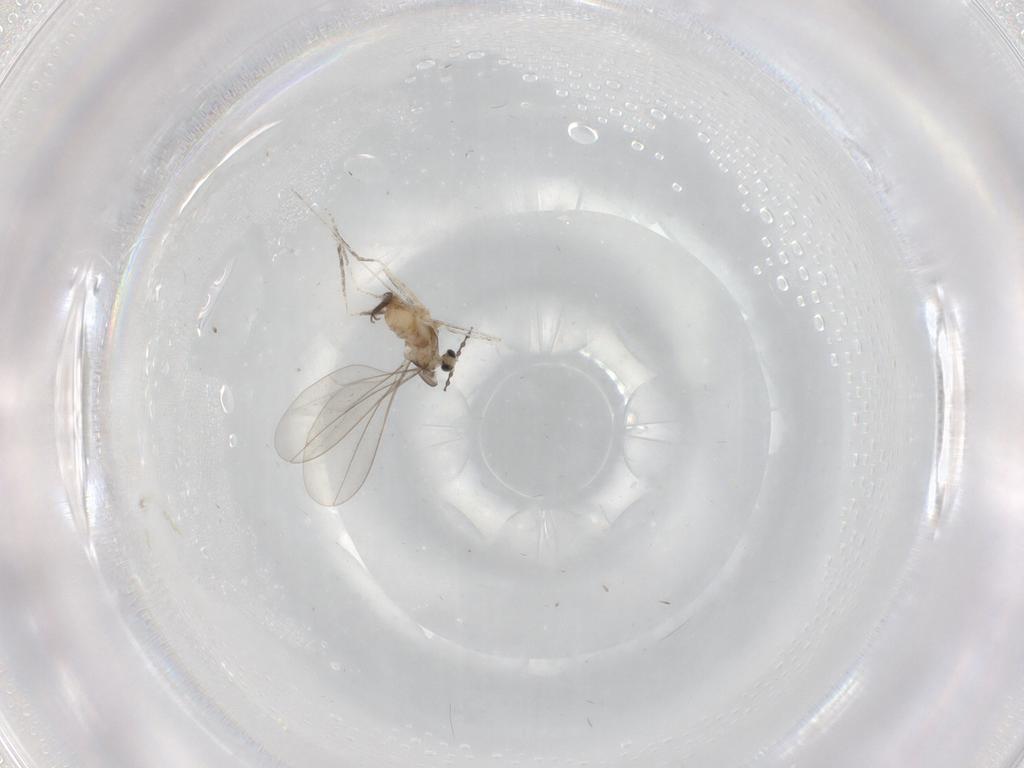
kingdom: Animalia
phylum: Arthropoda
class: Insecta
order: Diptera
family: Cecidomyiidae
